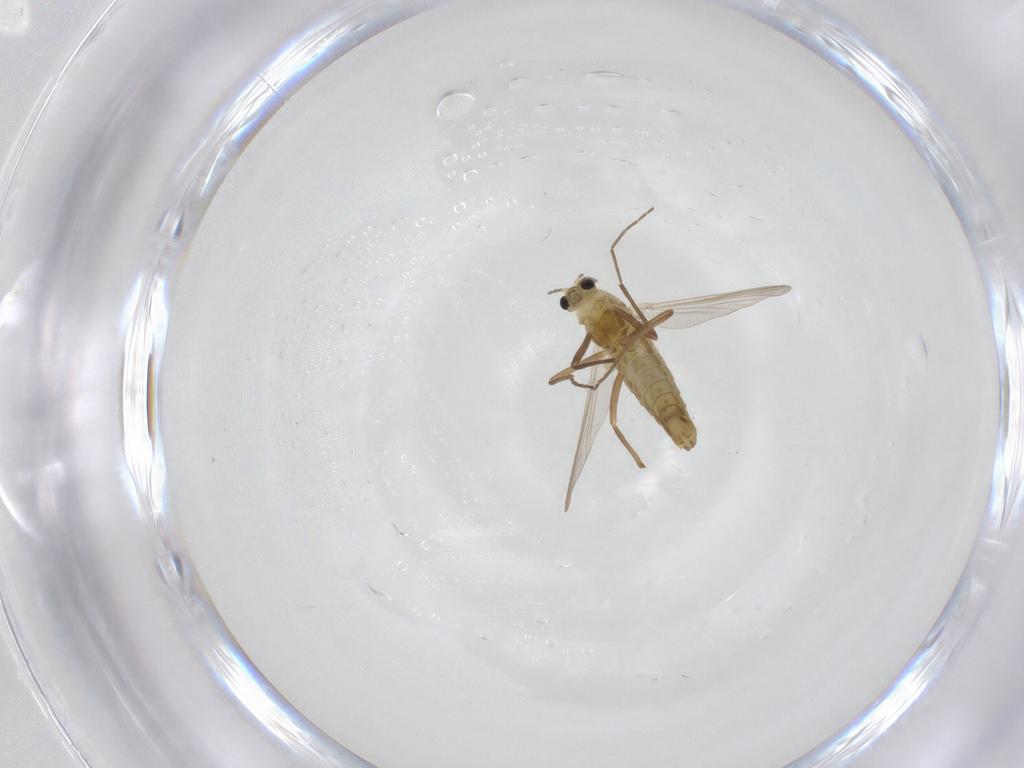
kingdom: Animalia
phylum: Arthropoda
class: Insecta
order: Diptera
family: Chironomidae
